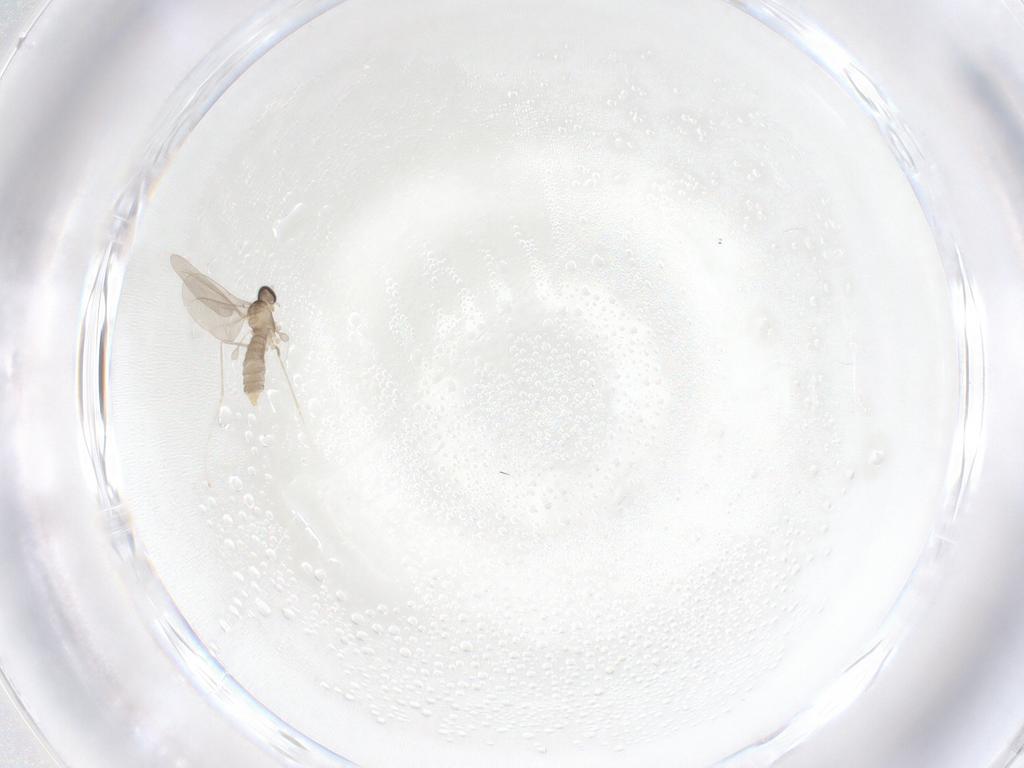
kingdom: Animalia
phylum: Arthropoda
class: Insecta
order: Diptera
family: Cecidomyiidae
